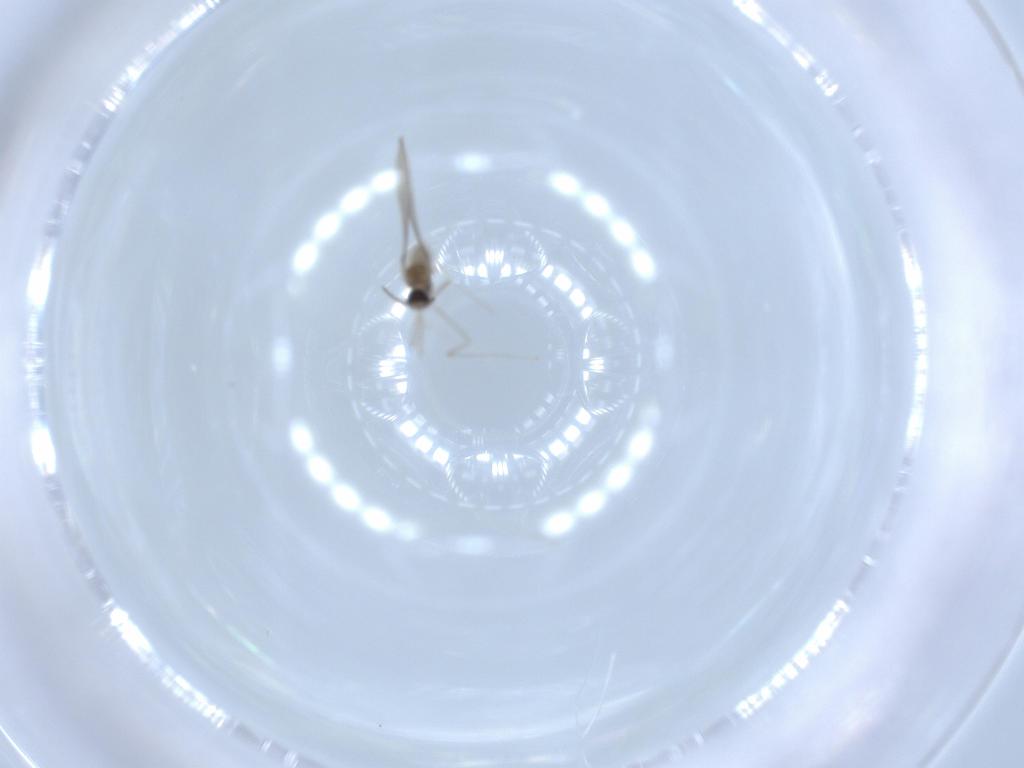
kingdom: Animalia
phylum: Arthropoda
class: Insecta
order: Diptera
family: Cecidomyiidae
